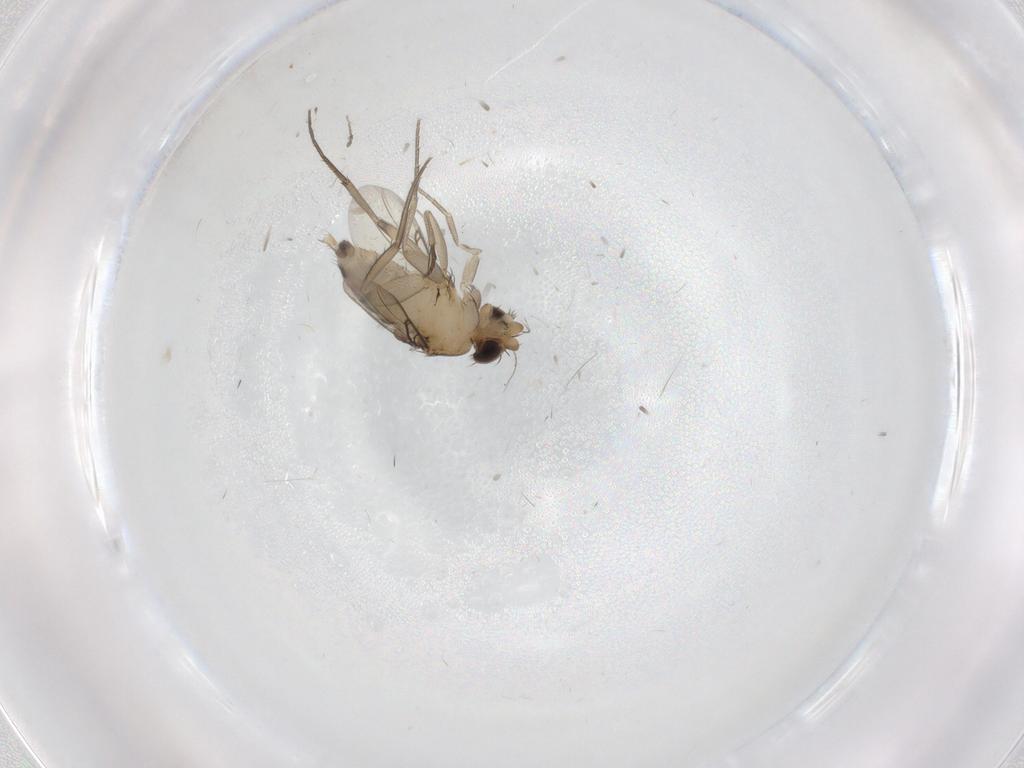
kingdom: Animalia
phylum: Arthropoda
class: Insecta
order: Diptera
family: Phoridae
